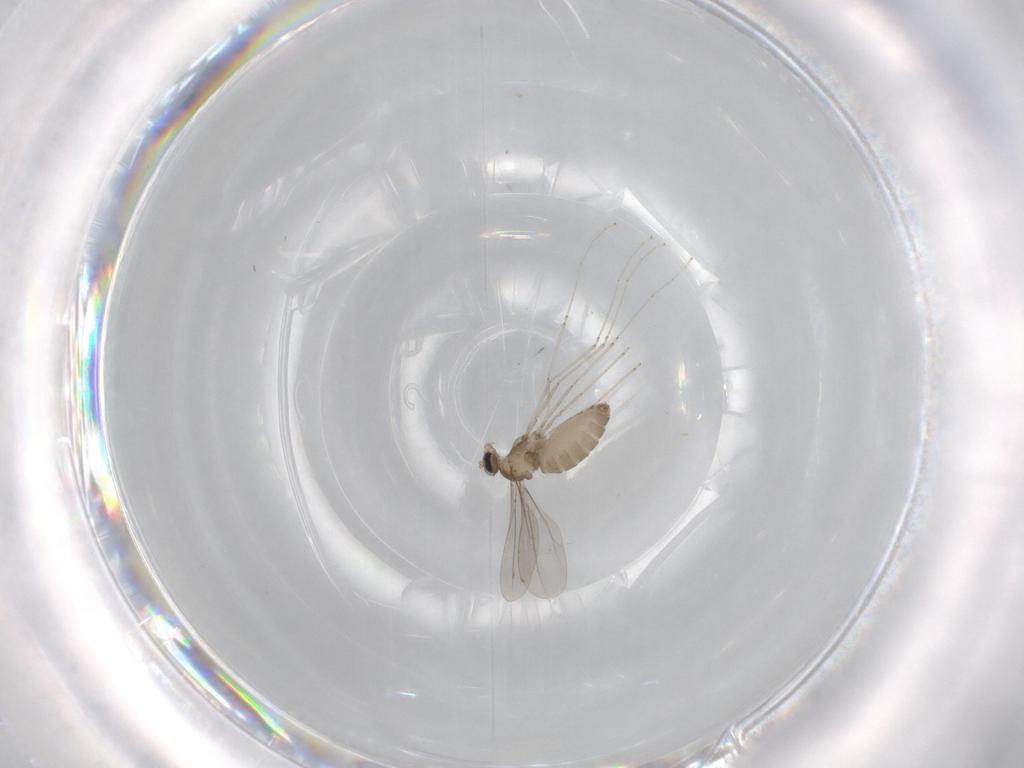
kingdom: Animalia
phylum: Arthropoda
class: Insecta
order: Diptera
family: Cecidomyiidae
